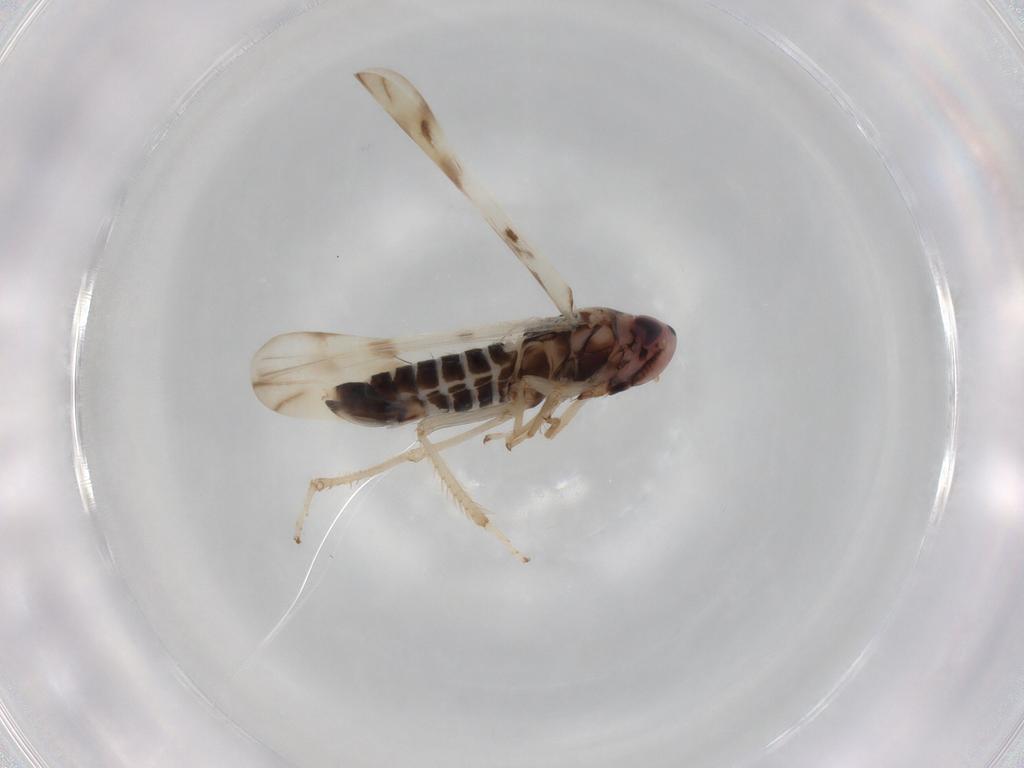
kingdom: Animalia
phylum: Arthropoda
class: Insecta
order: Hemiptera
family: Cicadellidae
